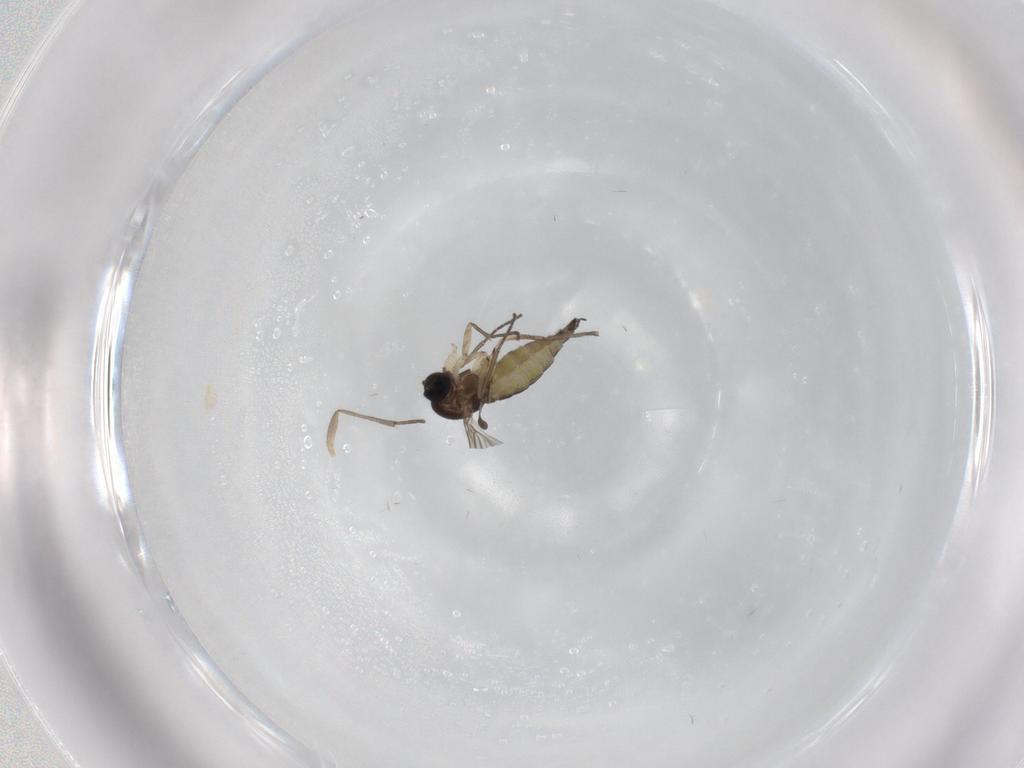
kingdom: Animalia
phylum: Arthropoda
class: Insecta
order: Diptera
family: Sciaridae
